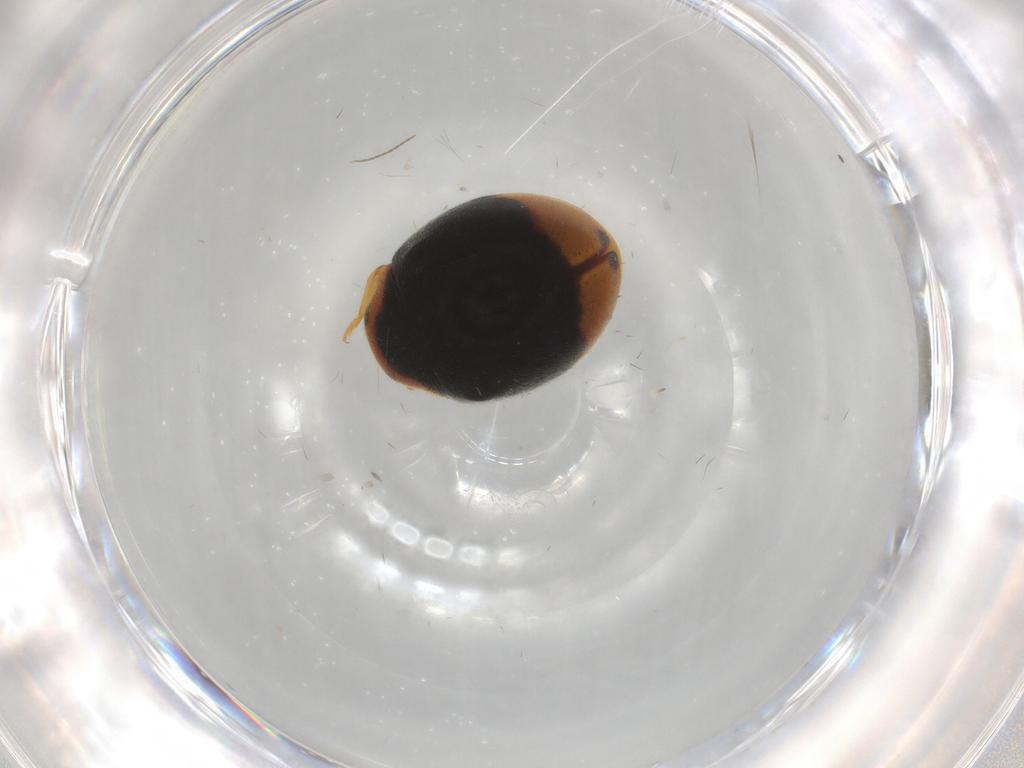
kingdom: Animalia
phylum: Arthropoda
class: Insecta
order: Coleoptera
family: Coccinellidae
